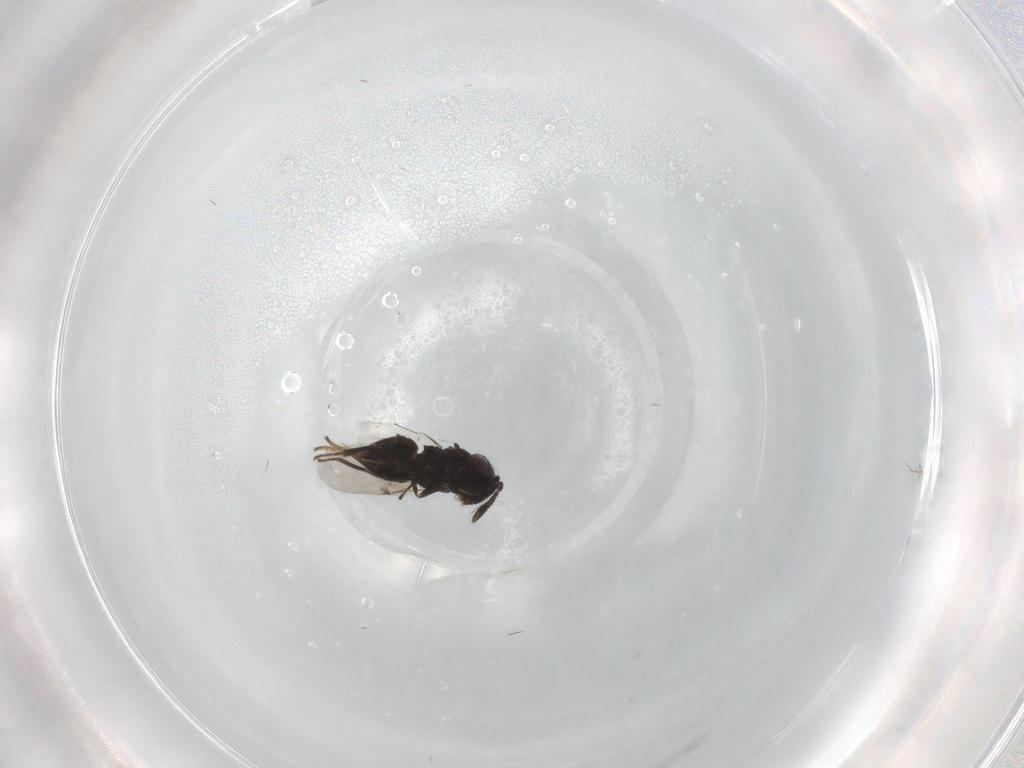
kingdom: Animalia
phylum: Arthropoda
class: Insecta
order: Hymenoptera
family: Encyrtidae
